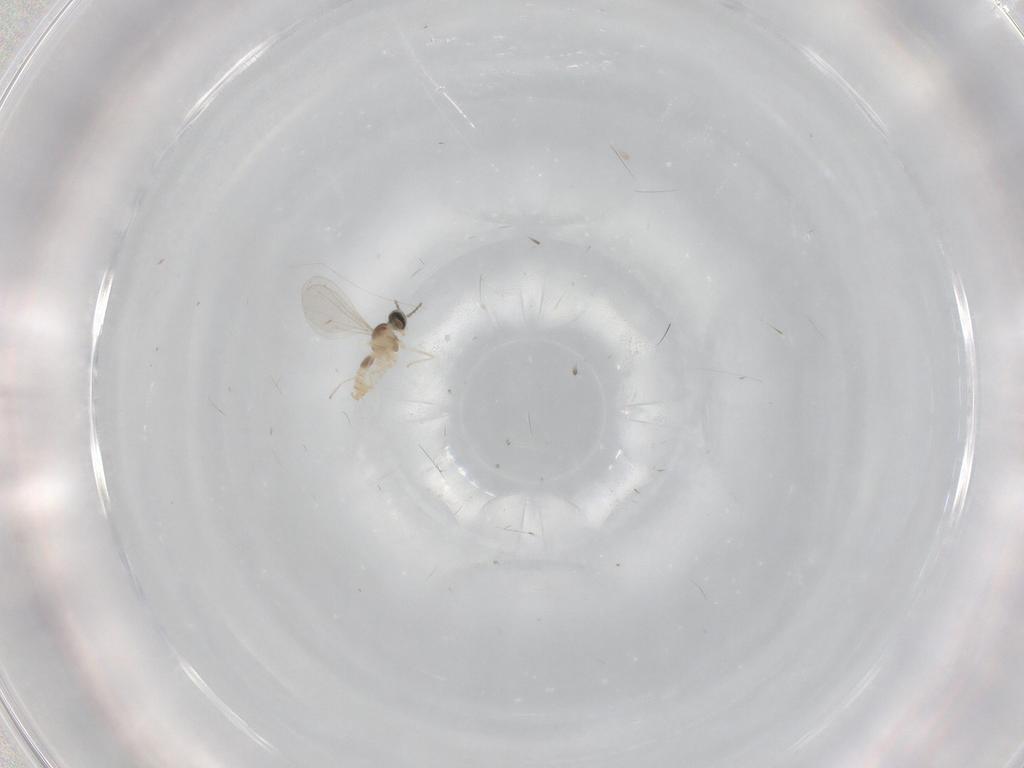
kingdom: Animalia
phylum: Arthropoda
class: Insecta
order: Diptera
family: Cecidomyiidae
